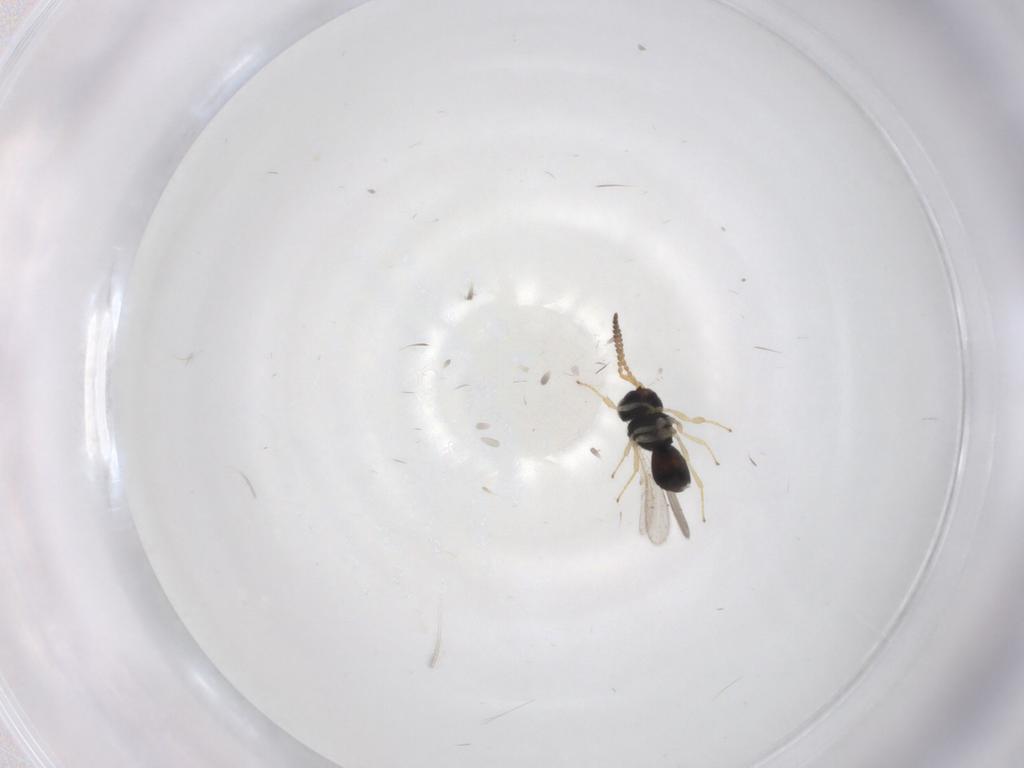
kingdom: Animalia
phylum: Arthropoda
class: Insecta
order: Hymenoptera
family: Scelionidae
